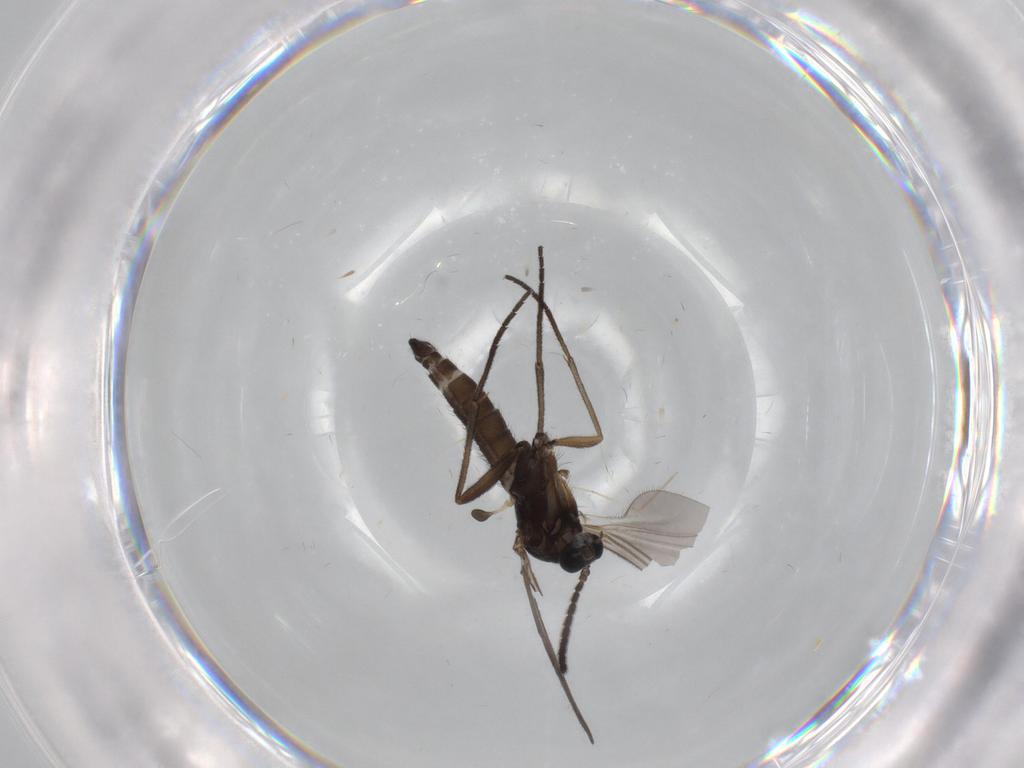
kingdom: Animalia
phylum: Arthropoda
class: Insecta
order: Diptera
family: Sciaridae
